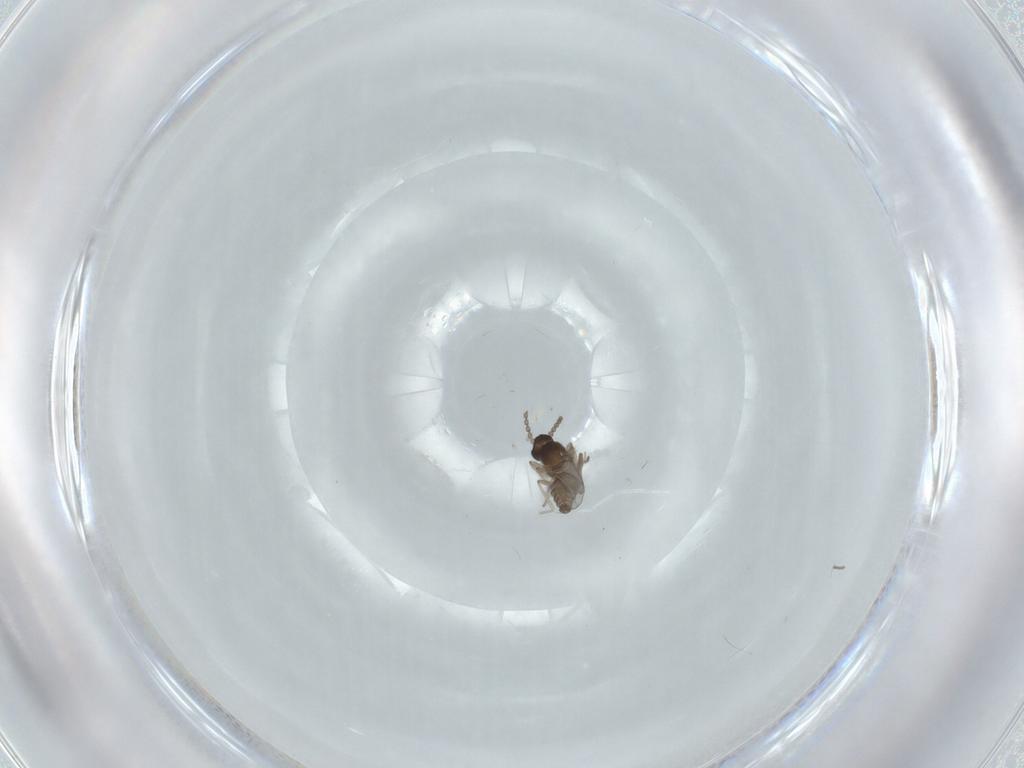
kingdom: Animalia
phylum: Arthropoda
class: Insecta
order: Diptera
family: Cecidomyiidae
